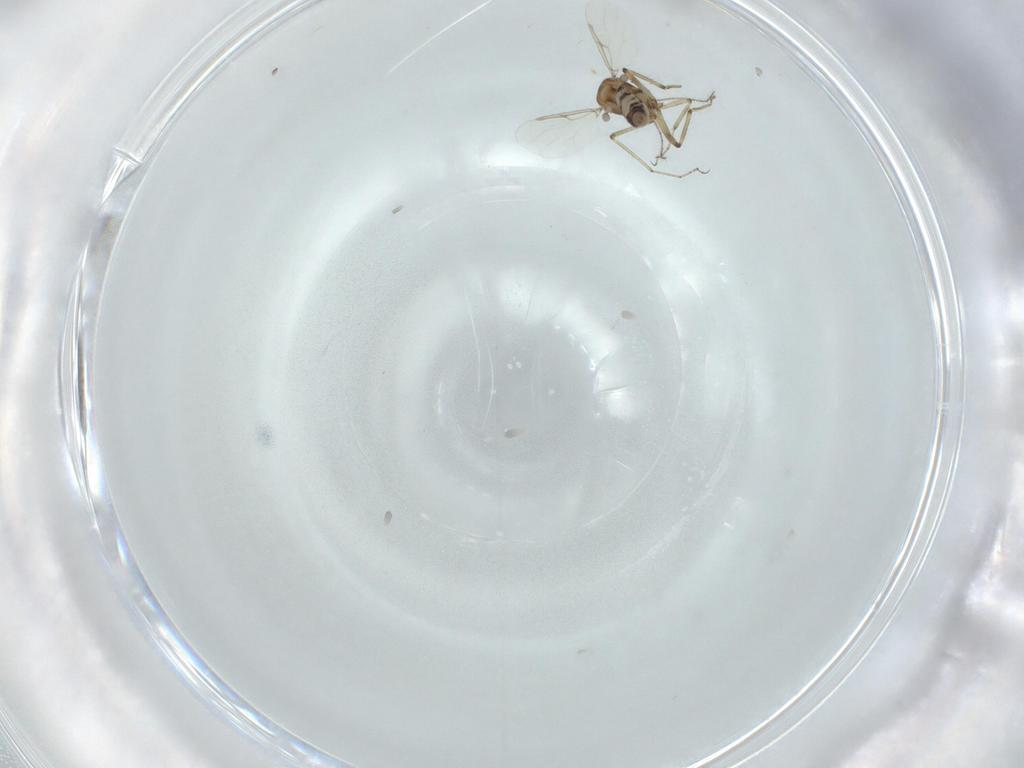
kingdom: Animalia
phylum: Arthropoda
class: Insecta
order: Diptera
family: Ceratopogonidae
